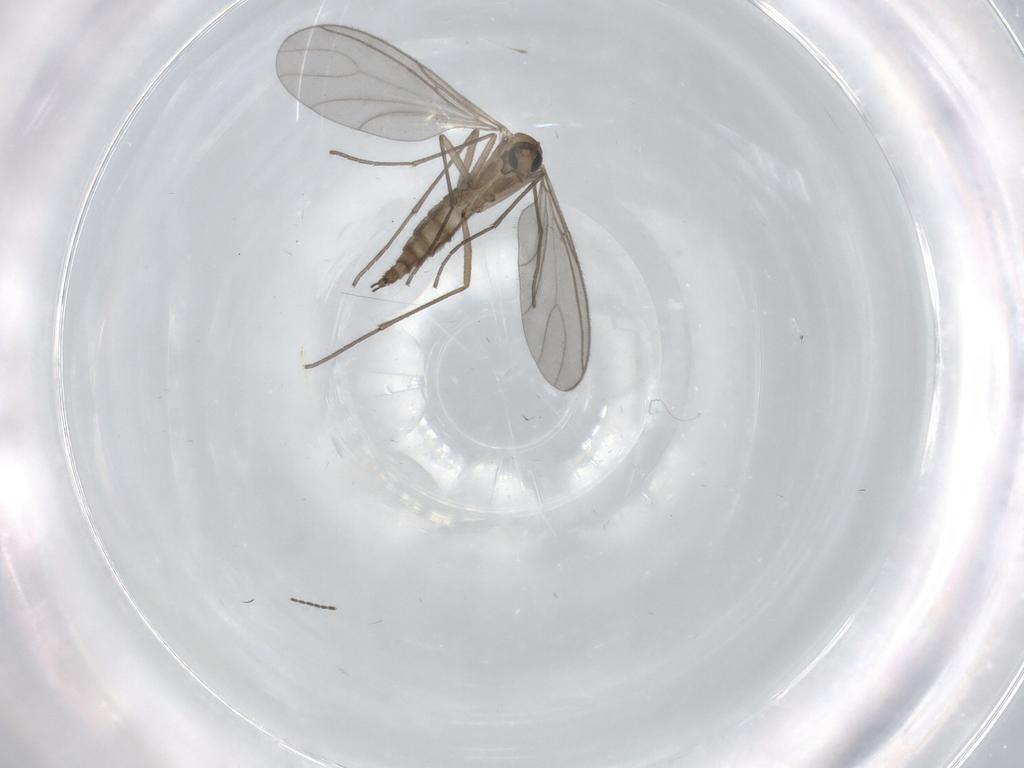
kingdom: Animalia
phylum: Arthropoda
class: Insecta
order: Diptera
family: Sciaridae
